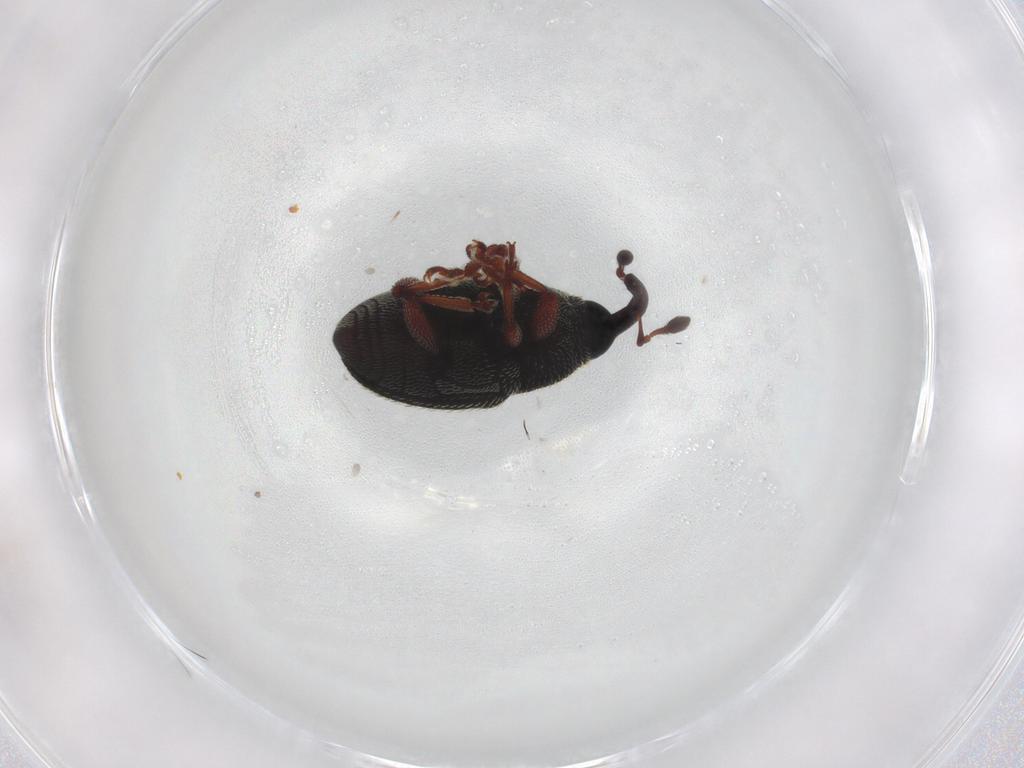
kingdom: Animalia
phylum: Arthropoda
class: Insecta
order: Coleoptera
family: Curculionidae
